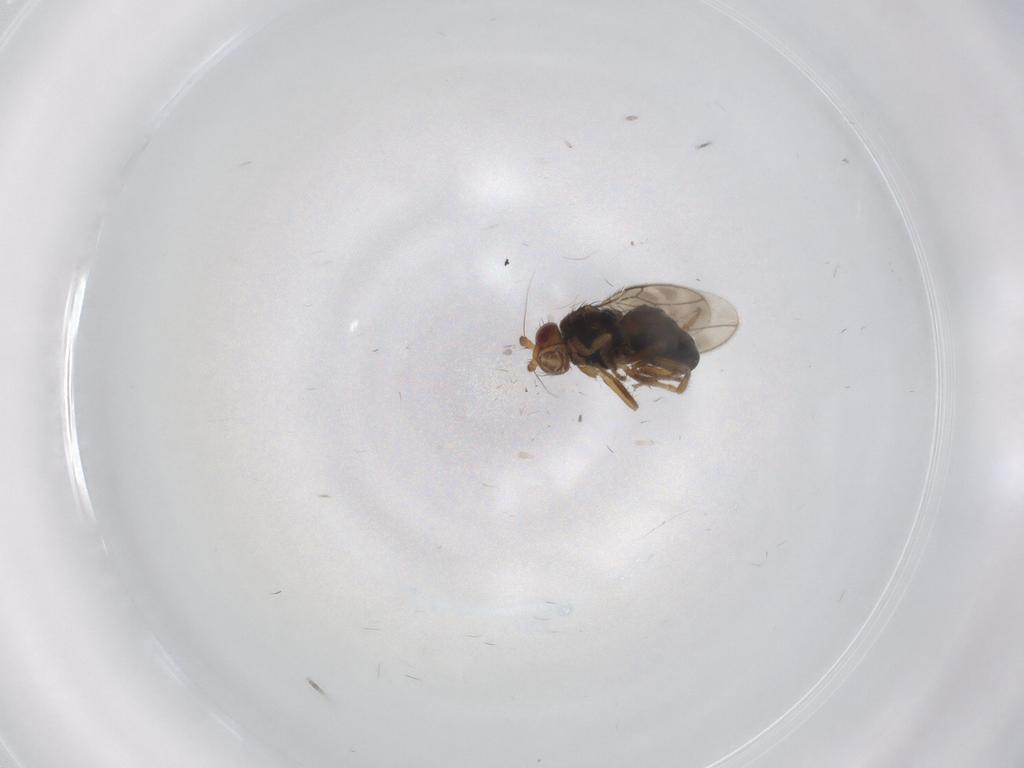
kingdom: Animalia
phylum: Arthropoda
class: Insecta
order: Diptera
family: Sphaeroceridae
